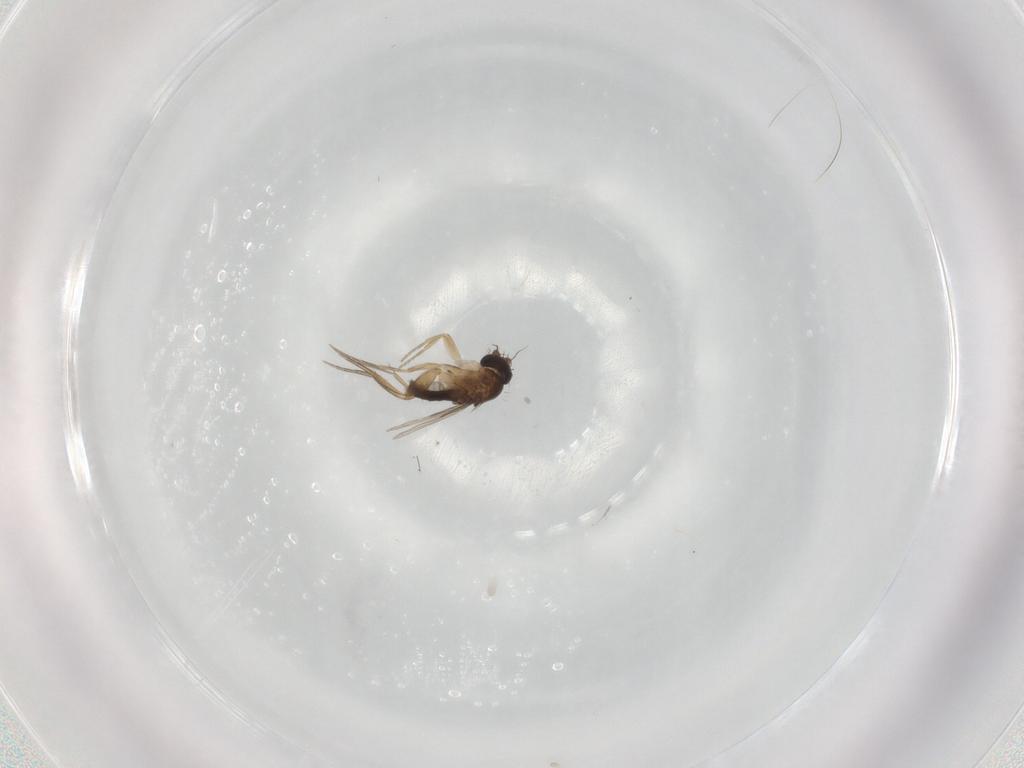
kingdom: Animalia
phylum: Arthropoda
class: Insecta
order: Diptera
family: Phoridae
